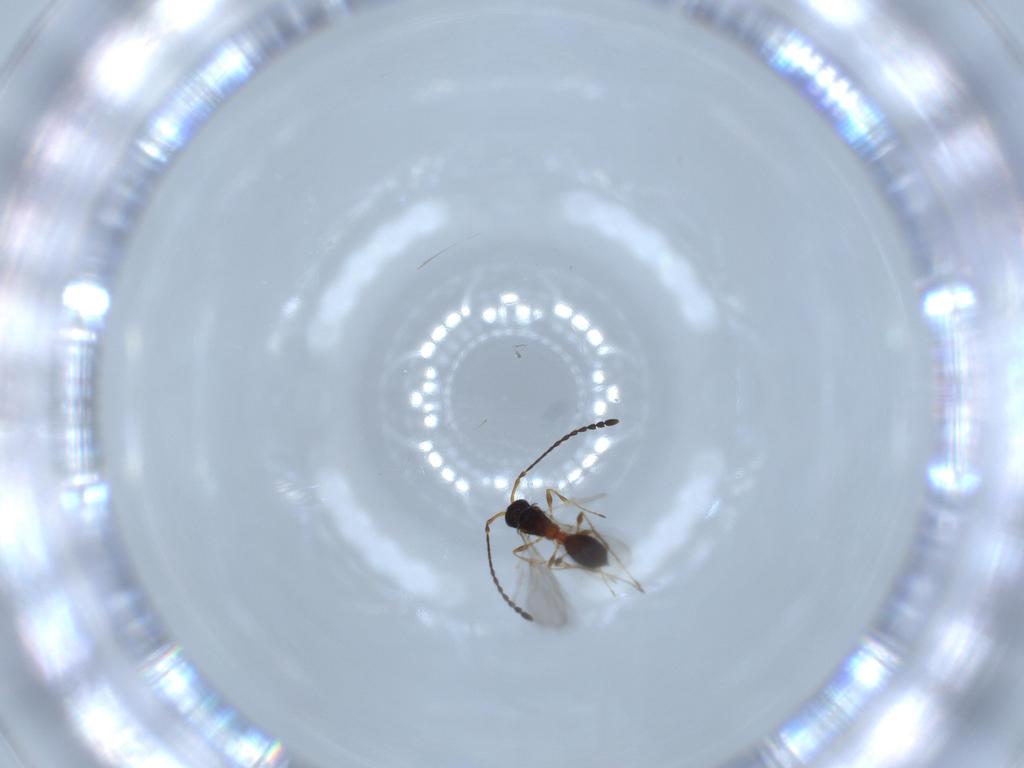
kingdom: Animalia
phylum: Arthropoda
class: Insecta
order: Hymenoptera
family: Diapriidae
